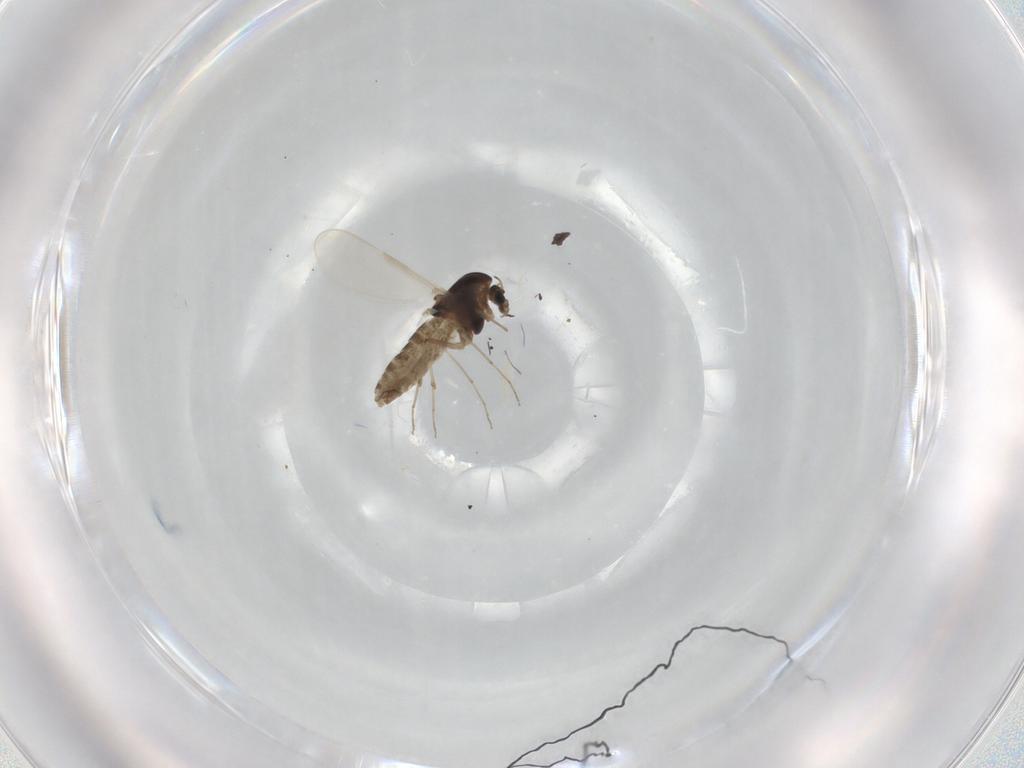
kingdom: Animalia
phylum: Arthropoda
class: Insecta
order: Diptera
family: Chironomidae
